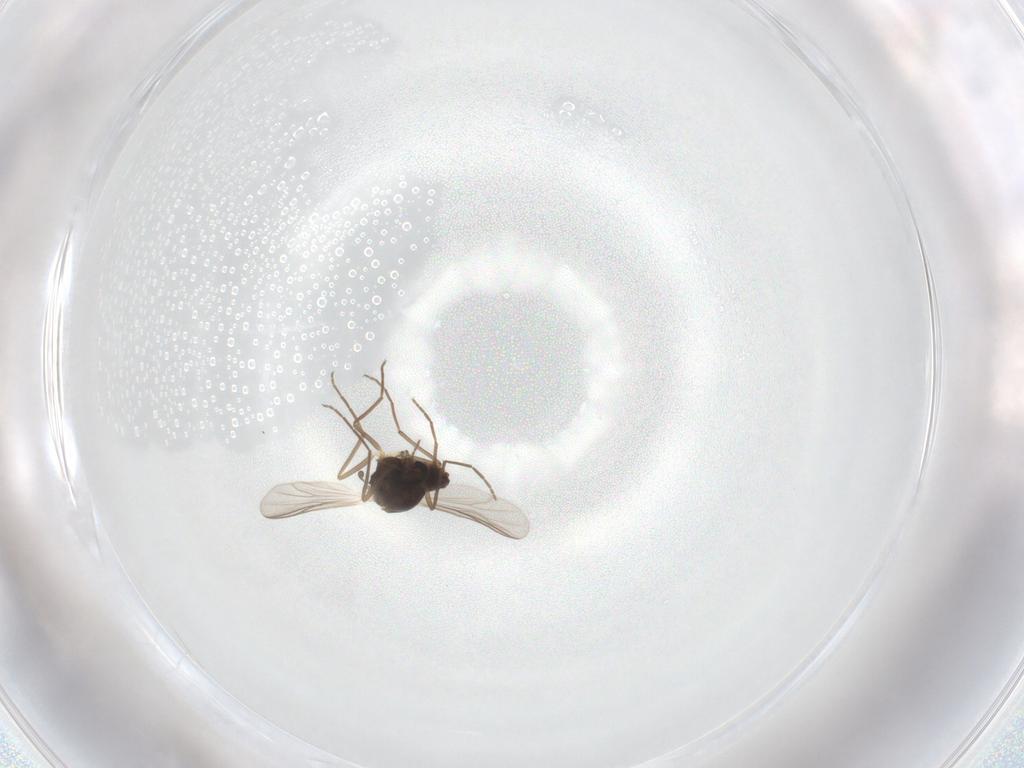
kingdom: Animalia
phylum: Arthropoda
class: Insecta
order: Diptera
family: Chironomidae
